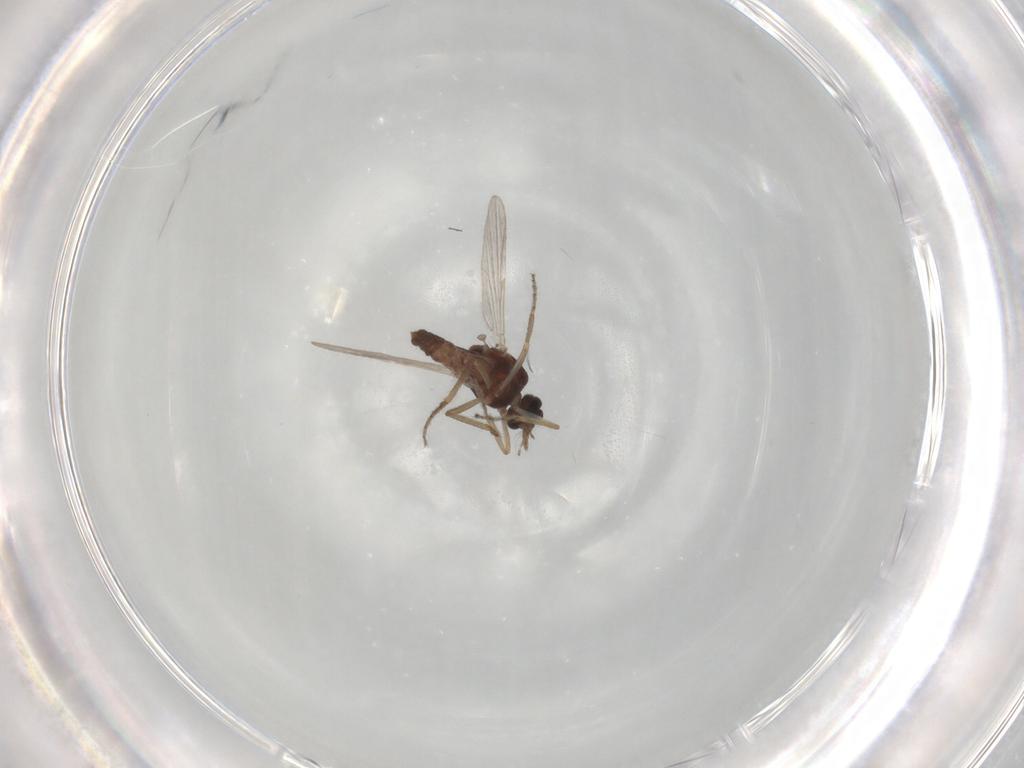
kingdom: Animalia
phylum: Arthropoda
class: Insecta
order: Diptera
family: Ceratopogonidae
